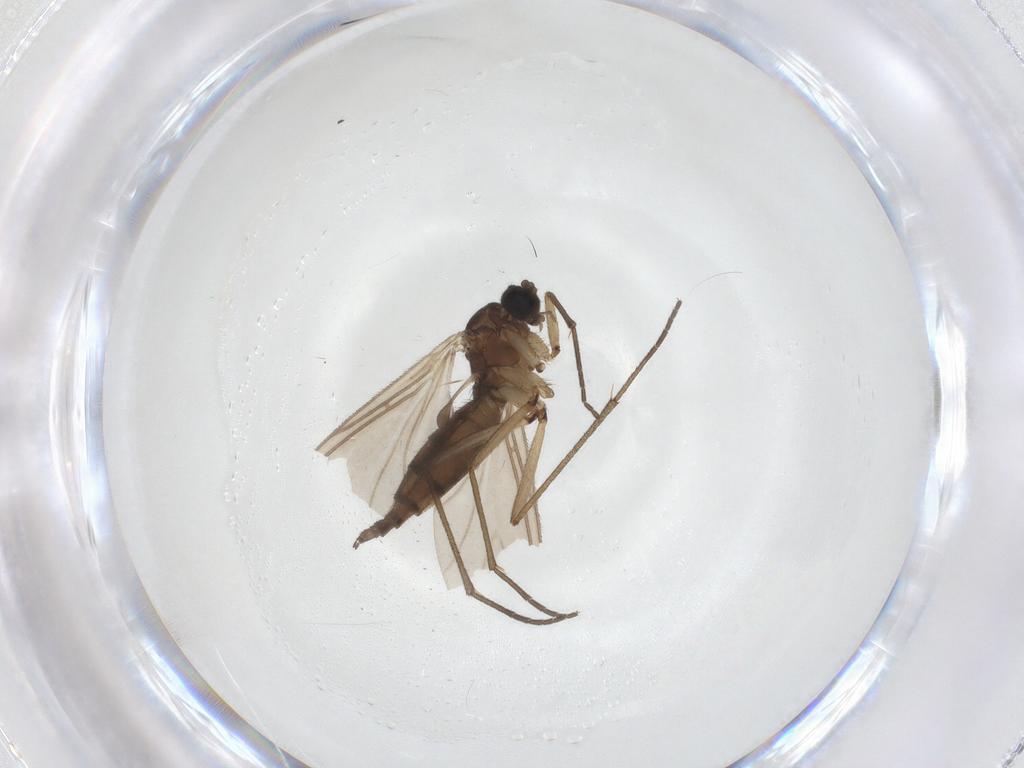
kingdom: Animalia
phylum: Arthropoda
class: Insecta
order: Diptera
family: Sciaridae
